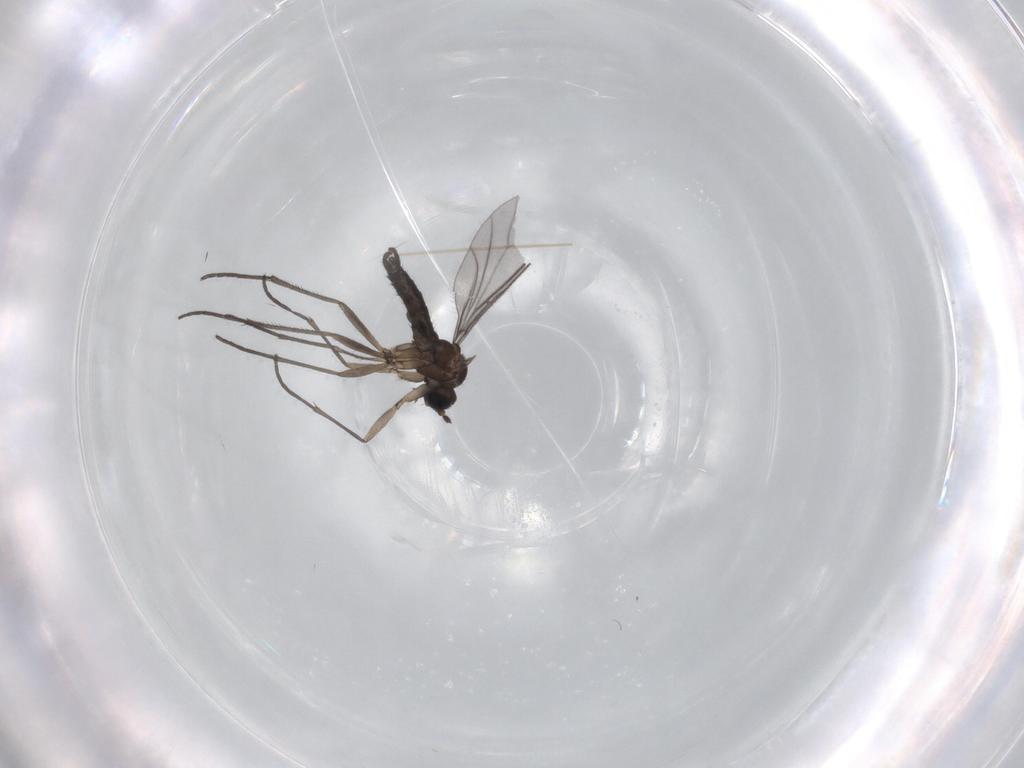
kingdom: Animalia
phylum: Arthropoda
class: Insecta
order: Diptera
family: Sciaridae
